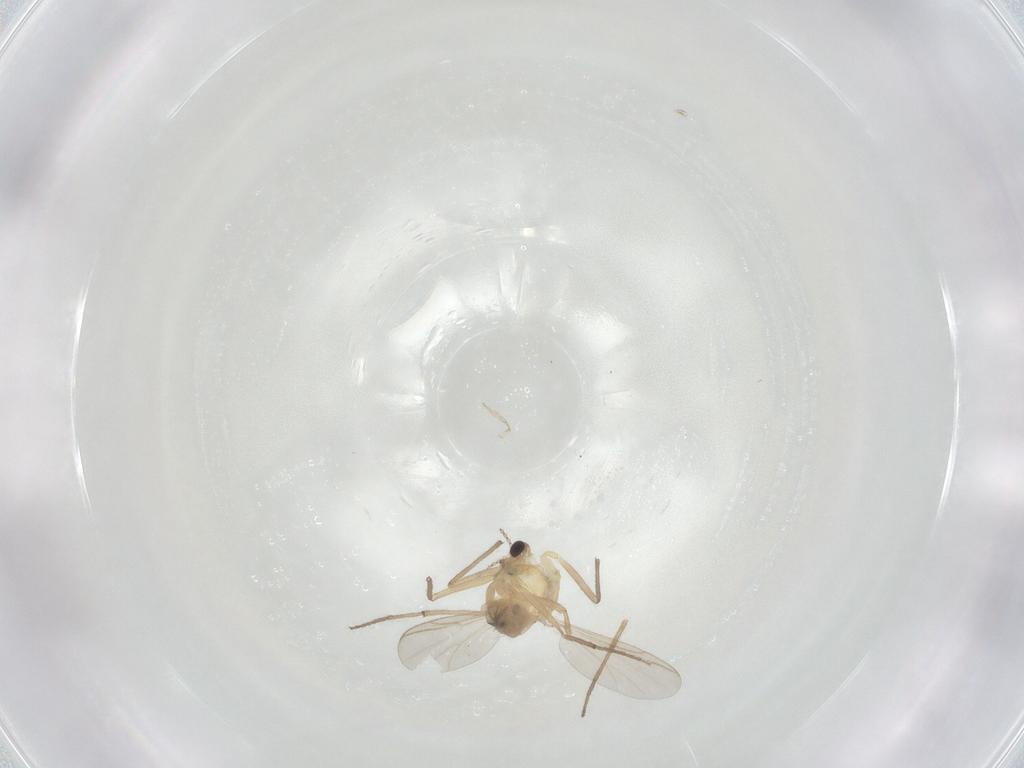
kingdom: Animalia
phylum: Arthropoda
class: Insecta
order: Diptera
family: Chironomidae
